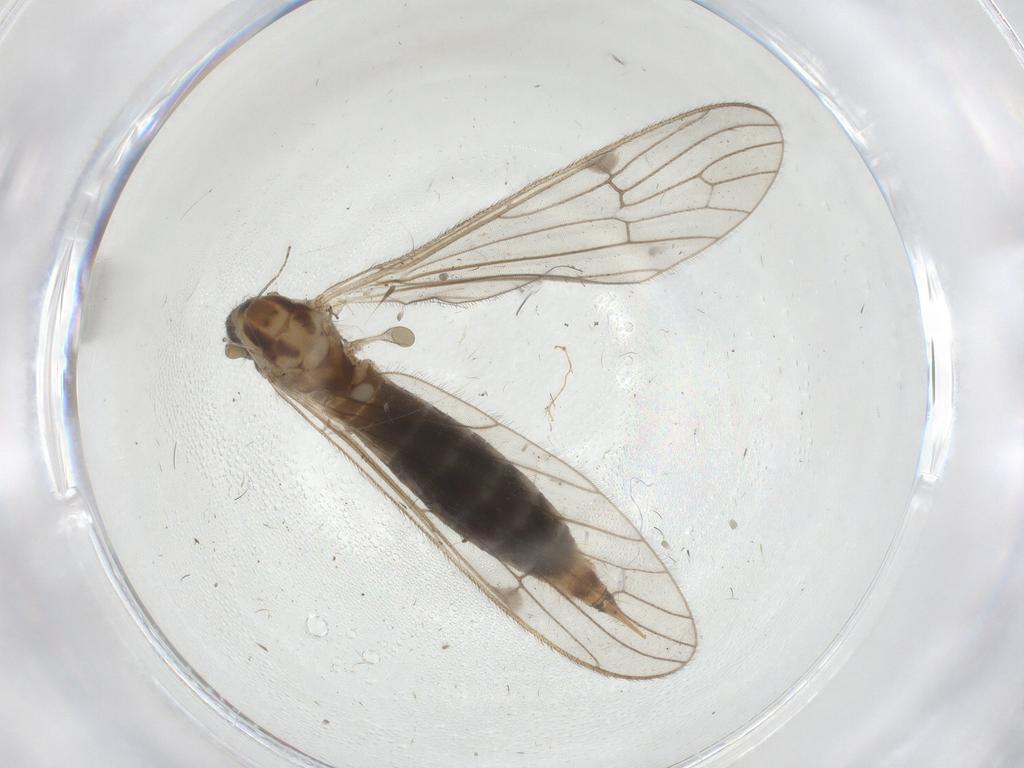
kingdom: Animalia
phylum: Arthropoda
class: Insecta
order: Diptera
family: Limoniidae
